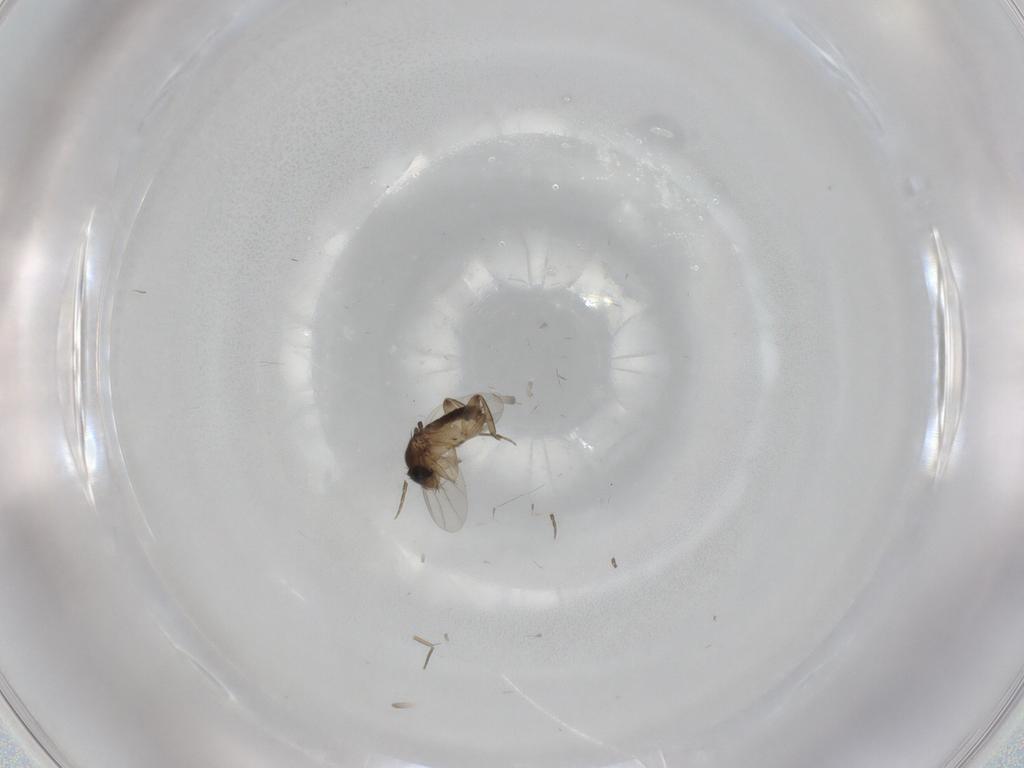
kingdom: Animalia
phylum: Arthropoda
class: Insecta
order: Diptera
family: Phoridae
